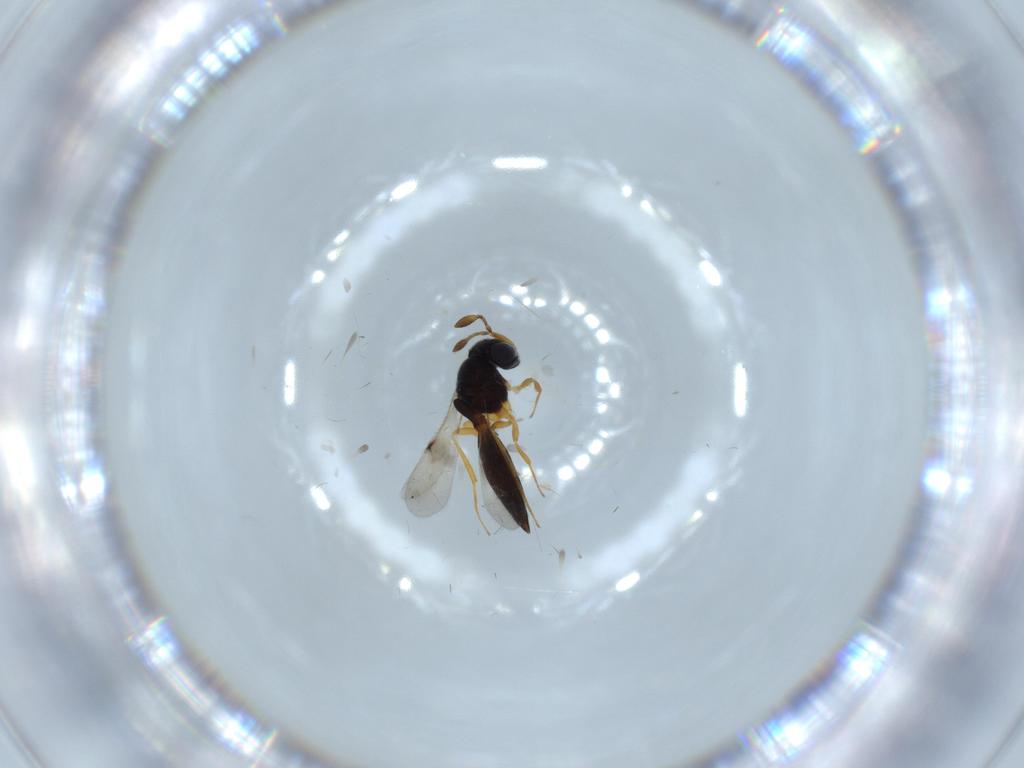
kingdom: Animalia
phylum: Arthropoda
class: Insecta
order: Hymenoptera
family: Scelionidae
